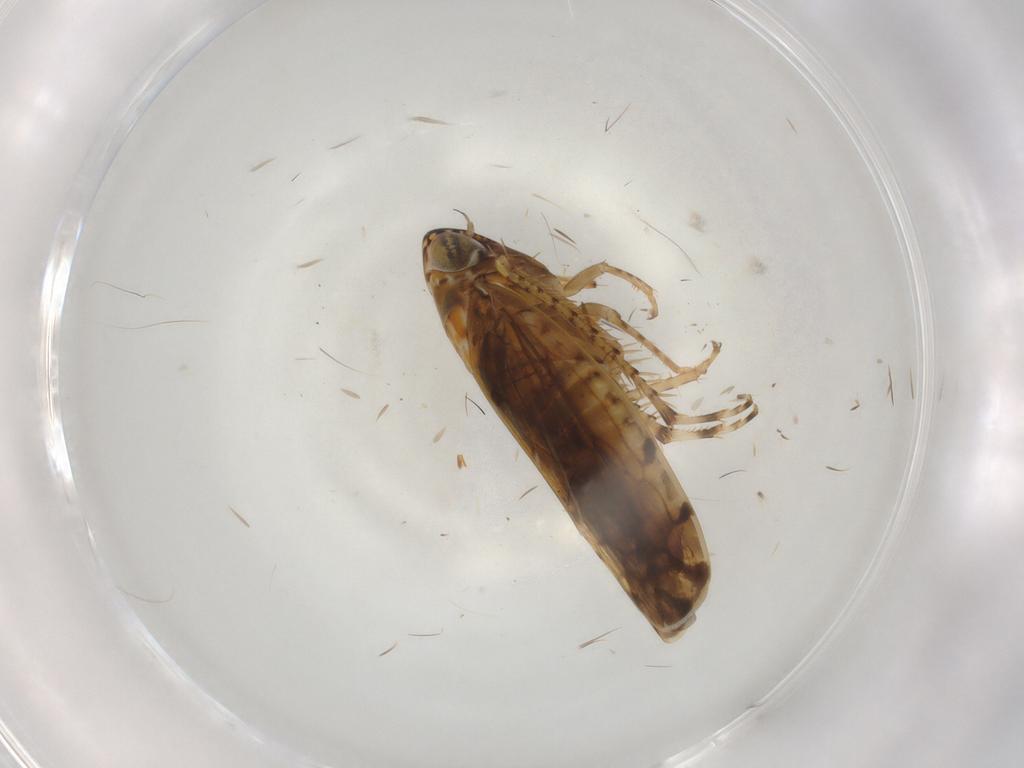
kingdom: Animalia
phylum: Arthropoda
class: Insecta
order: Hemiptera
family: Cicadellidae
